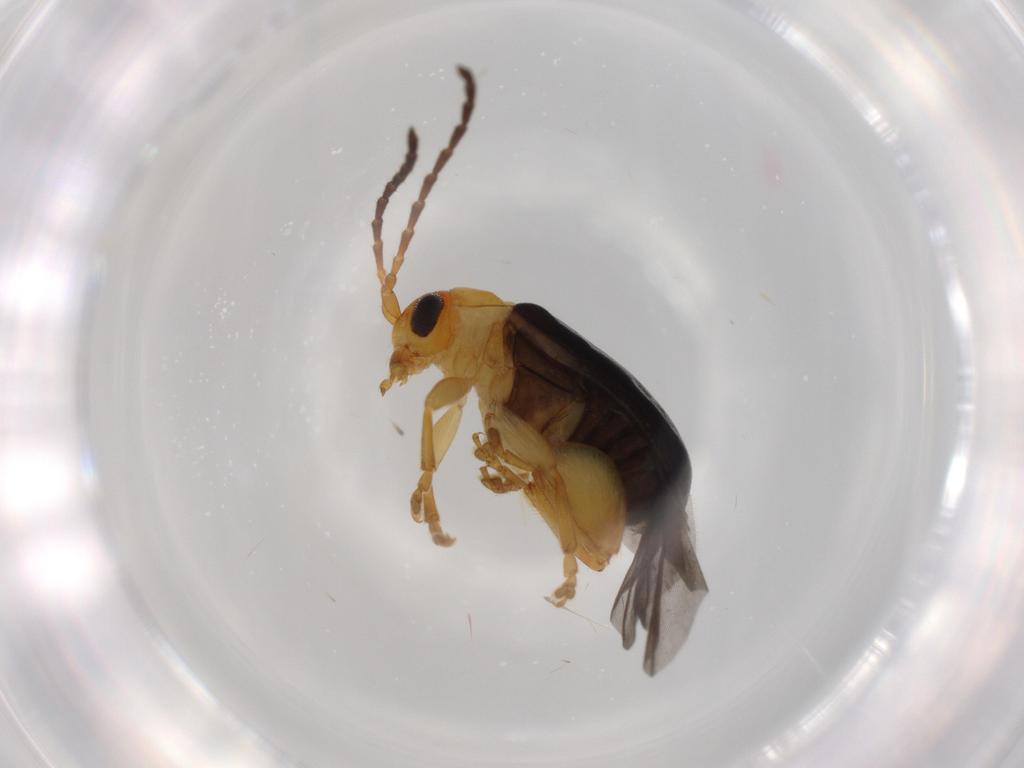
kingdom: Animalia
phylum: Arthropoda
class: Insecta
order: Coleoptera
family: Chrysomelidae
